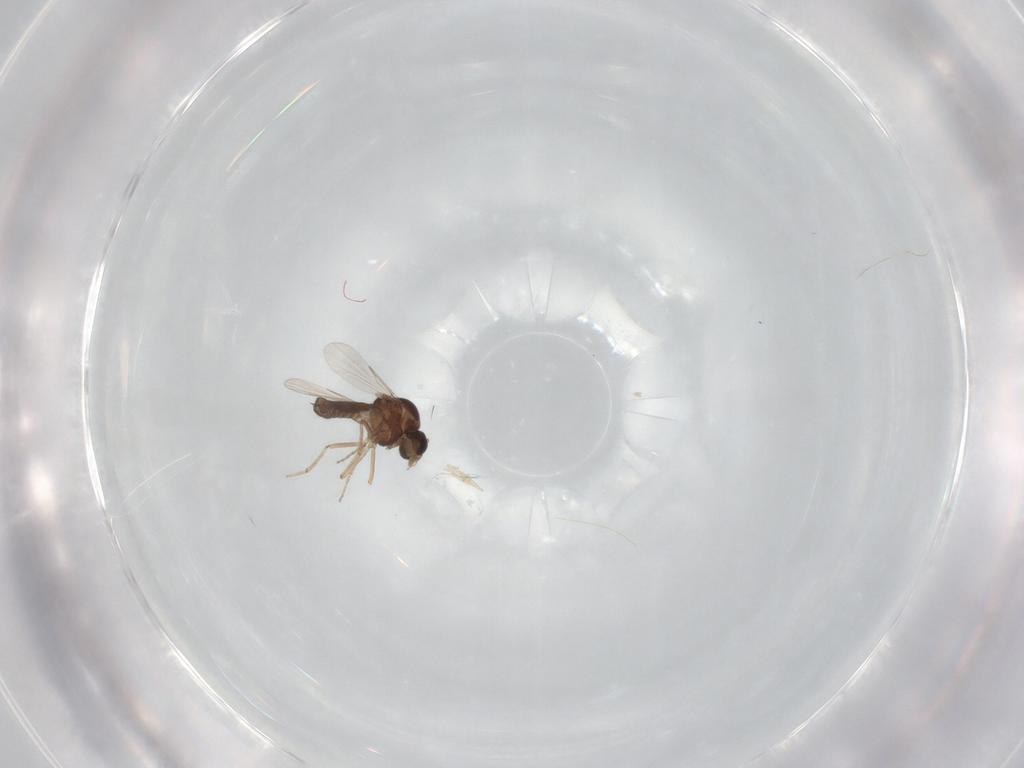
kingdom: Animalia
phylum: Arthropoda
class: Insecta
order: Diptera
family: Ceratopogonidae
